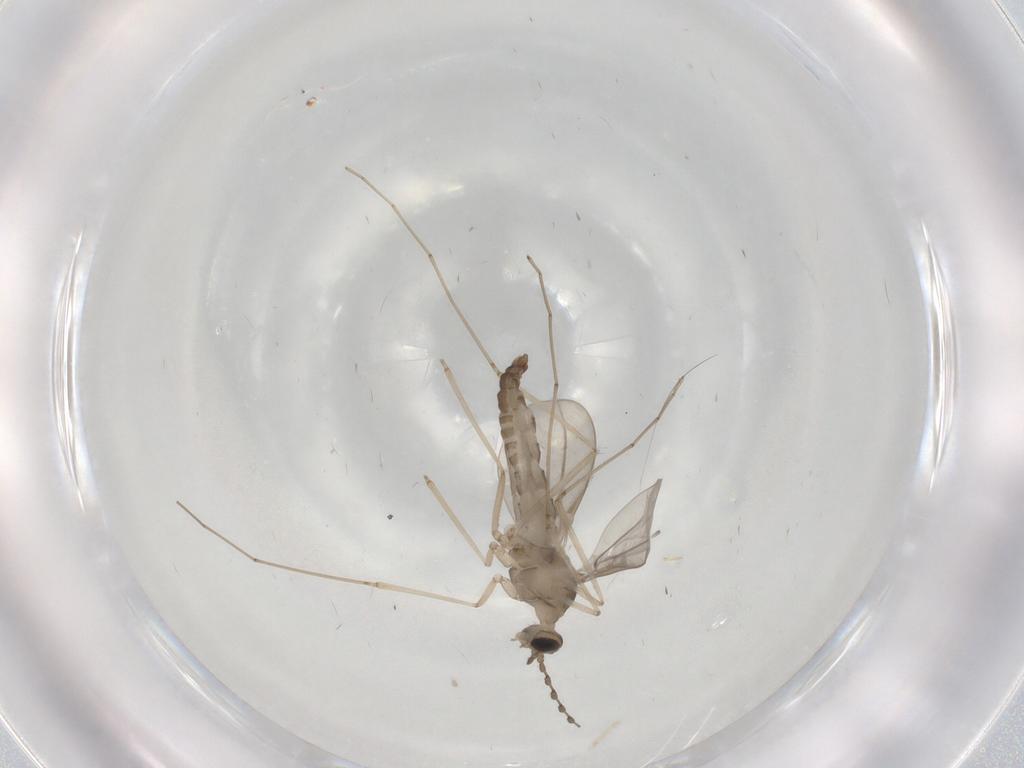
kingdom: Animalia
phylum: Arthropoda
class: Insecta
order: Diptera
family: Cecidomyiidae
